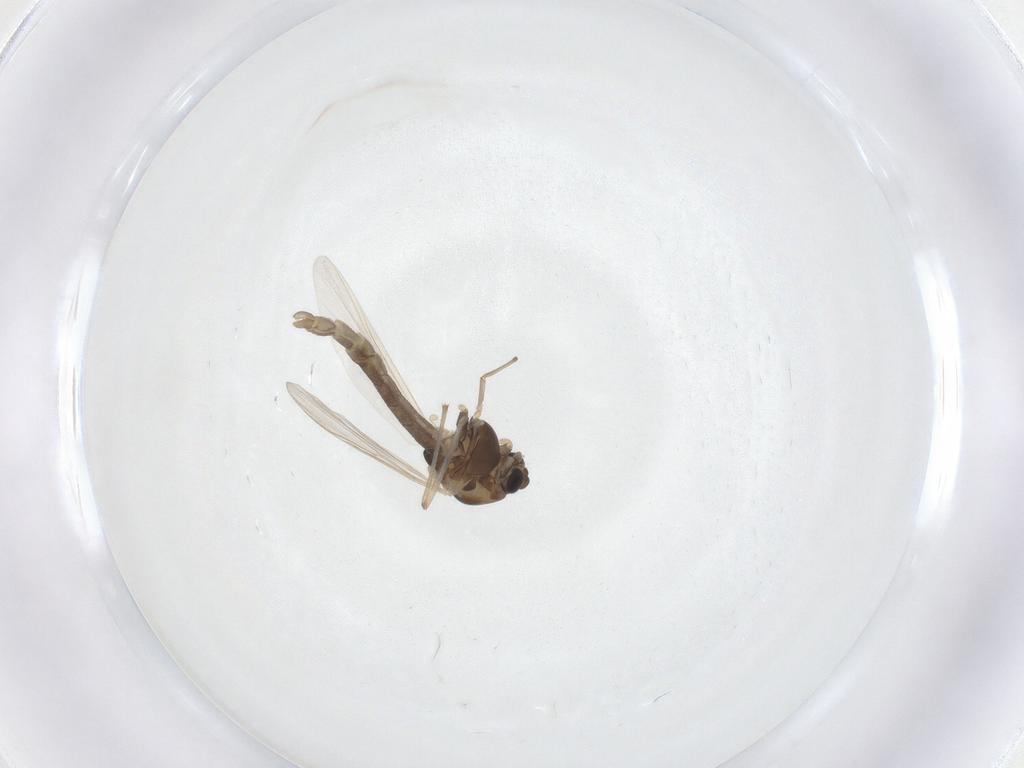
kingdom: Animalia
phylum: Arthropoda
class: Insecta
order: Diptera
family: Chironomidae
